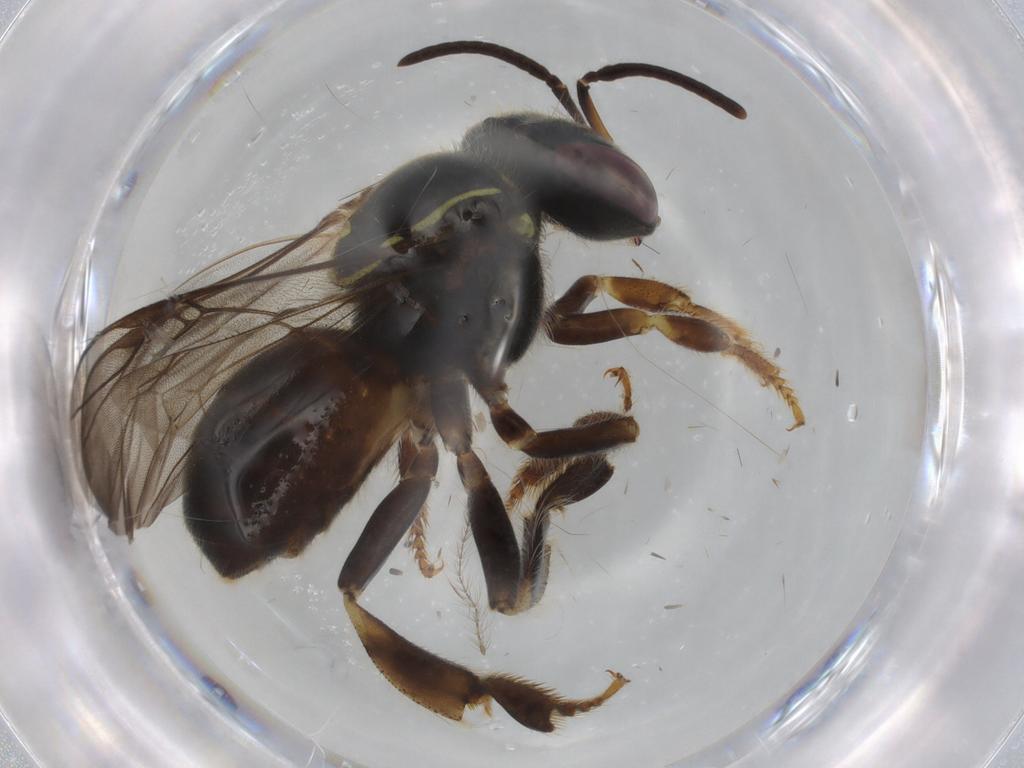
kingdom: Animalia
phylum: Arthropoda
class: Insecta
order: Hymenoptera
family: Apidae
